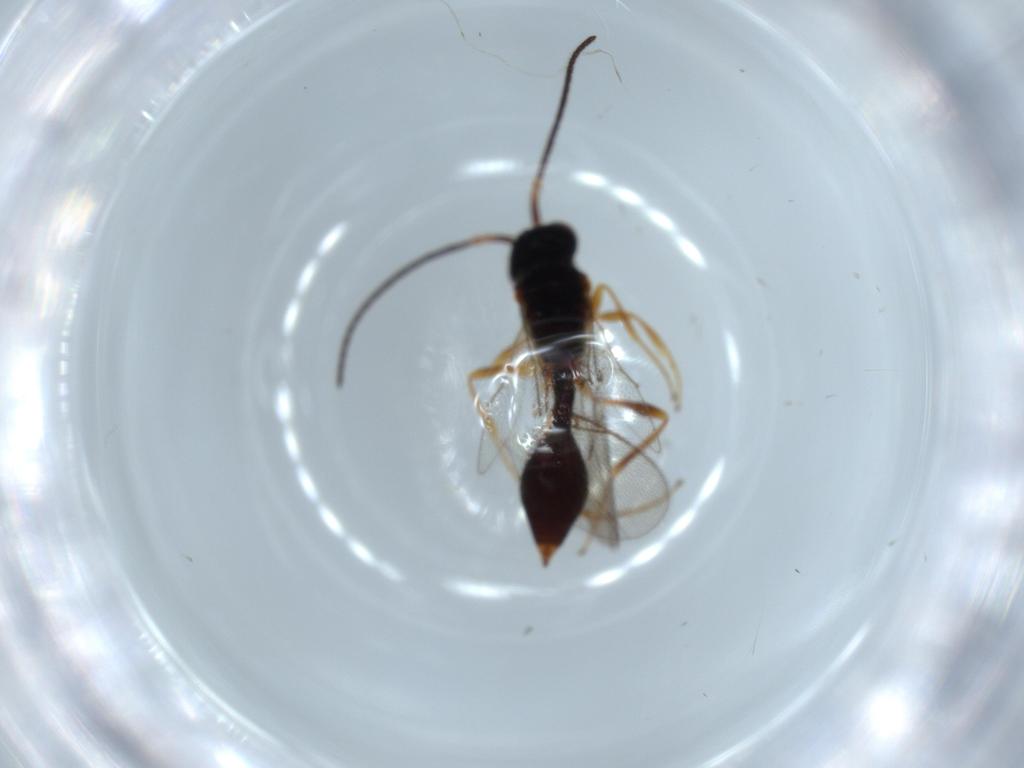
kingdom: Animalia
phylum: Arthropoda
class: Insecta
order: Hymenoptera
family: Diapriidae
